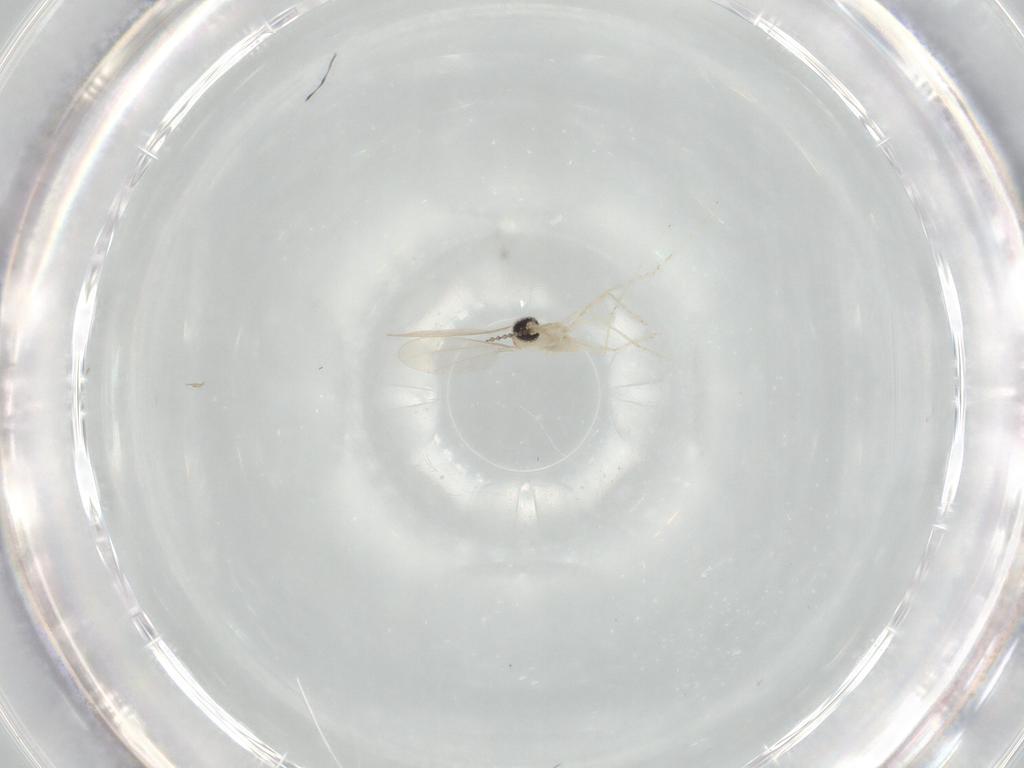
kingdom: Animalia
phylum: Arthropoda
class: Insecta
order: Diptera
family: Cecidomyiidae
